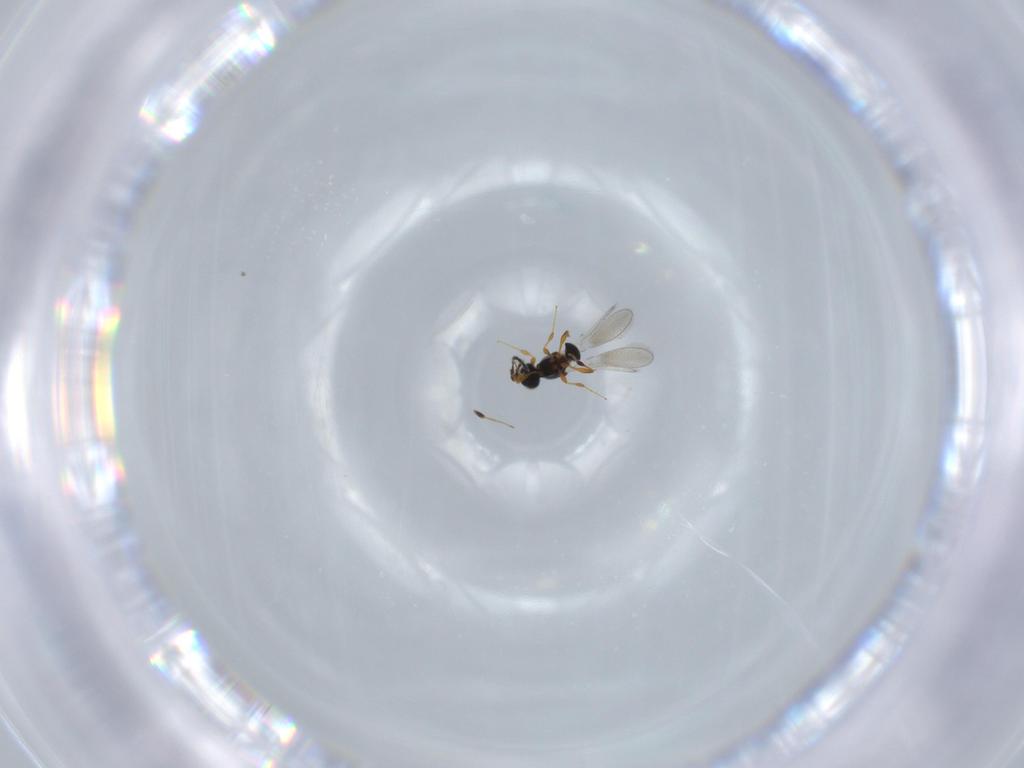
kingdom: Animalia
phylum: Arthropoda
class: Insecta
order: Hymenoptera
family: Platygastridae
